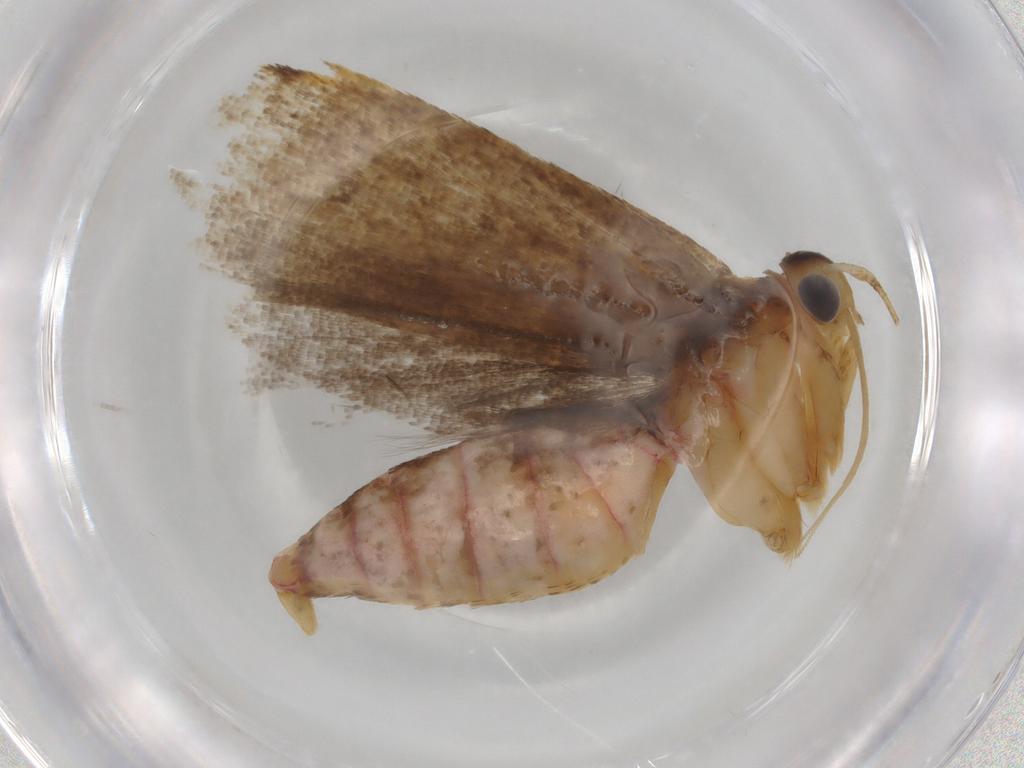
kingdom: Animalia
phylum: Arthropoda
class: Insecta
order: Lepidoptera
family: Autostichidae
